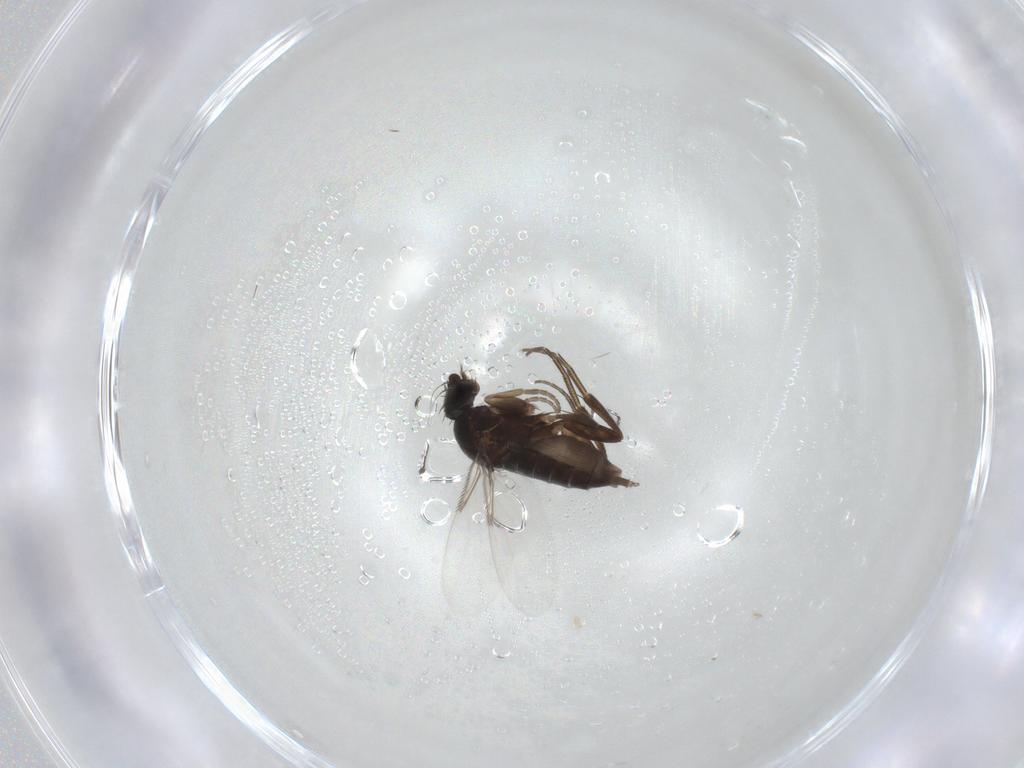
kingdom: Animalia
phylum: Arthropoda
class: Insecta
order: Diptera
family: Phoridae
